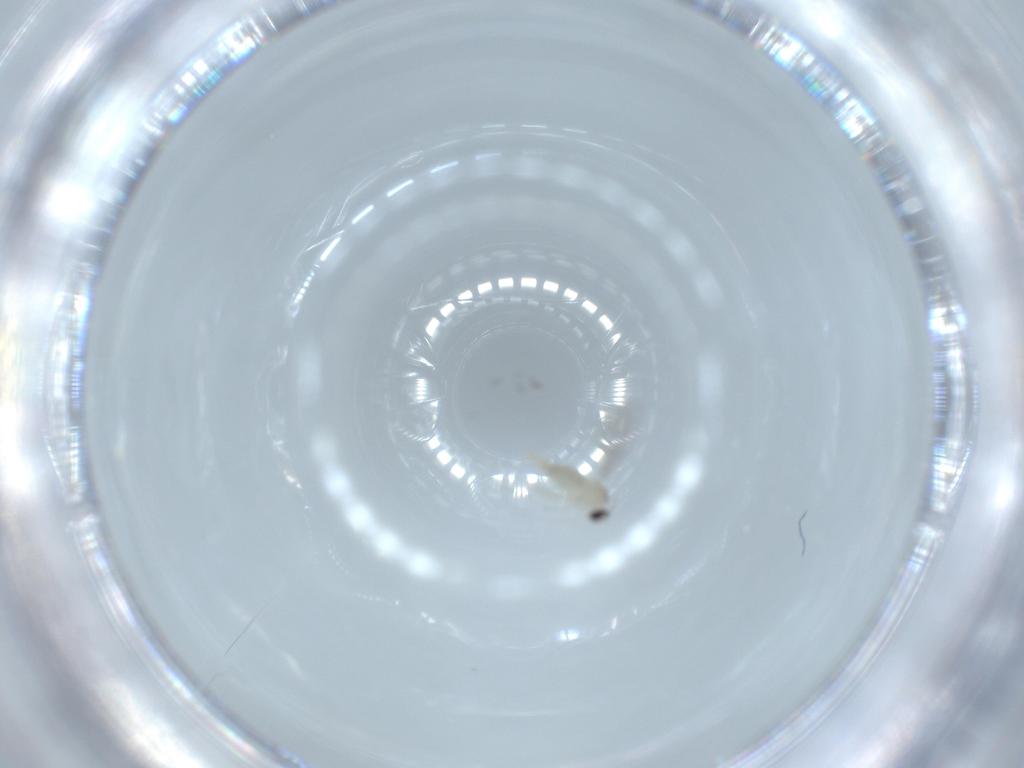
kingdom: Animalia
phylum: Arthropoda
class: Insecta
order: Diptera
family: Cecidomyiidae
